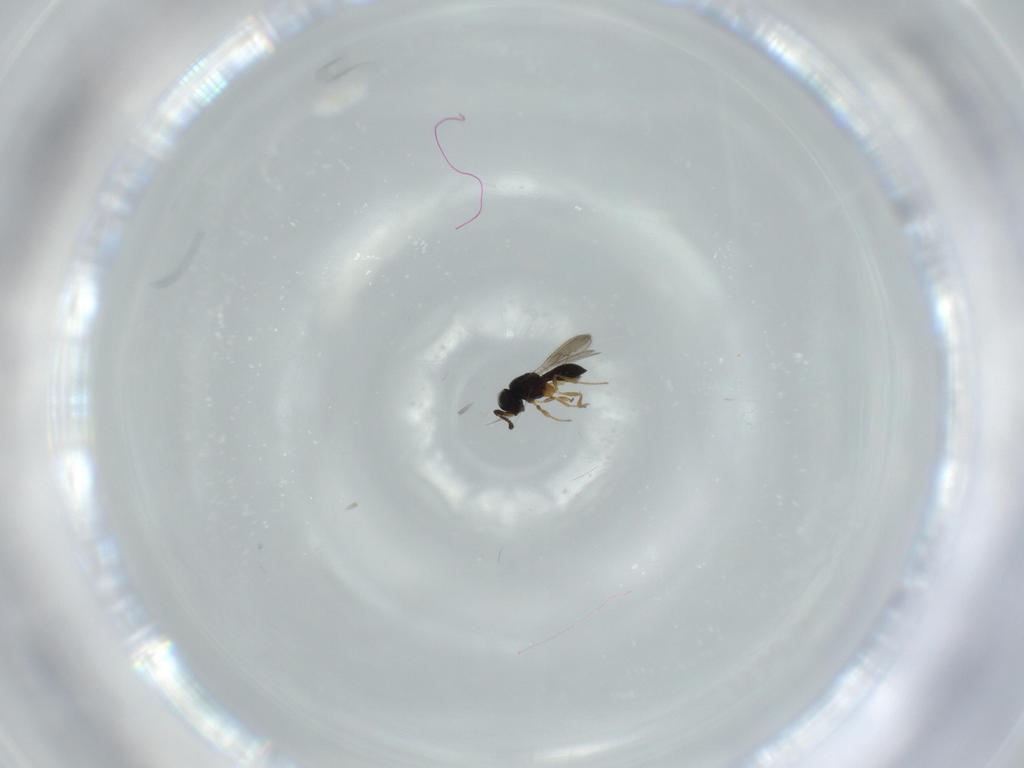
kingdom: Animalia
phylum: Arthropoda
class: Insecta
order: Hymenoptera
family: Scelionidae
